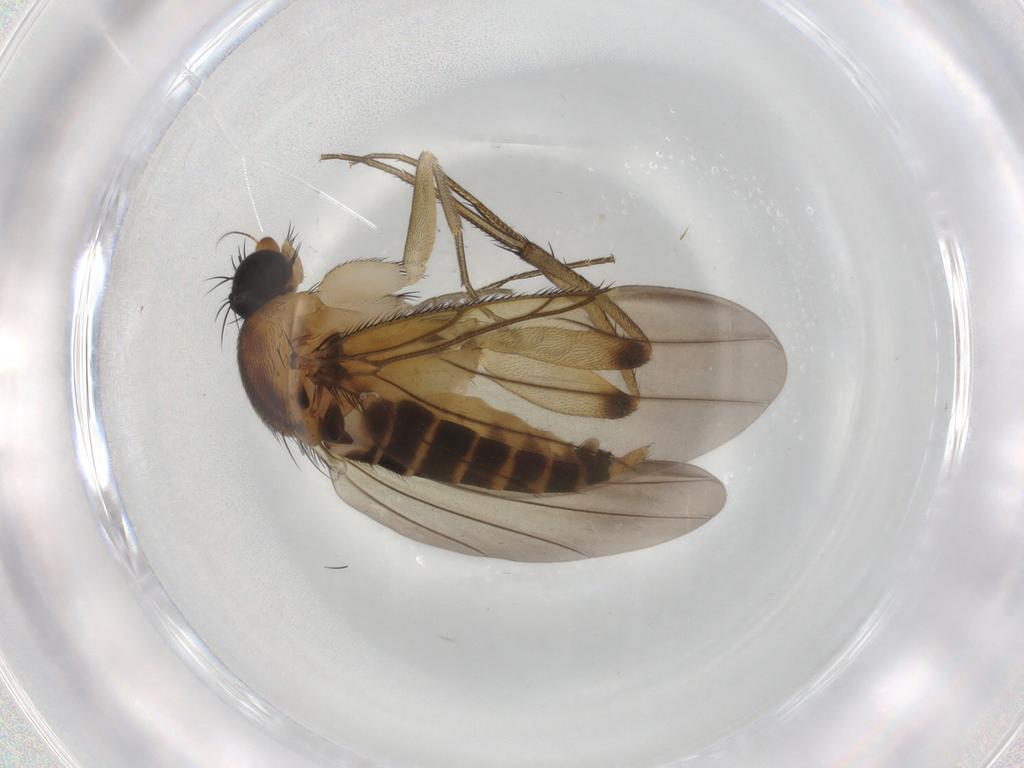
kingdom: Animalia
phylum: Arthropoda
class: Insecta
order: Diptera
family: Phoridae
